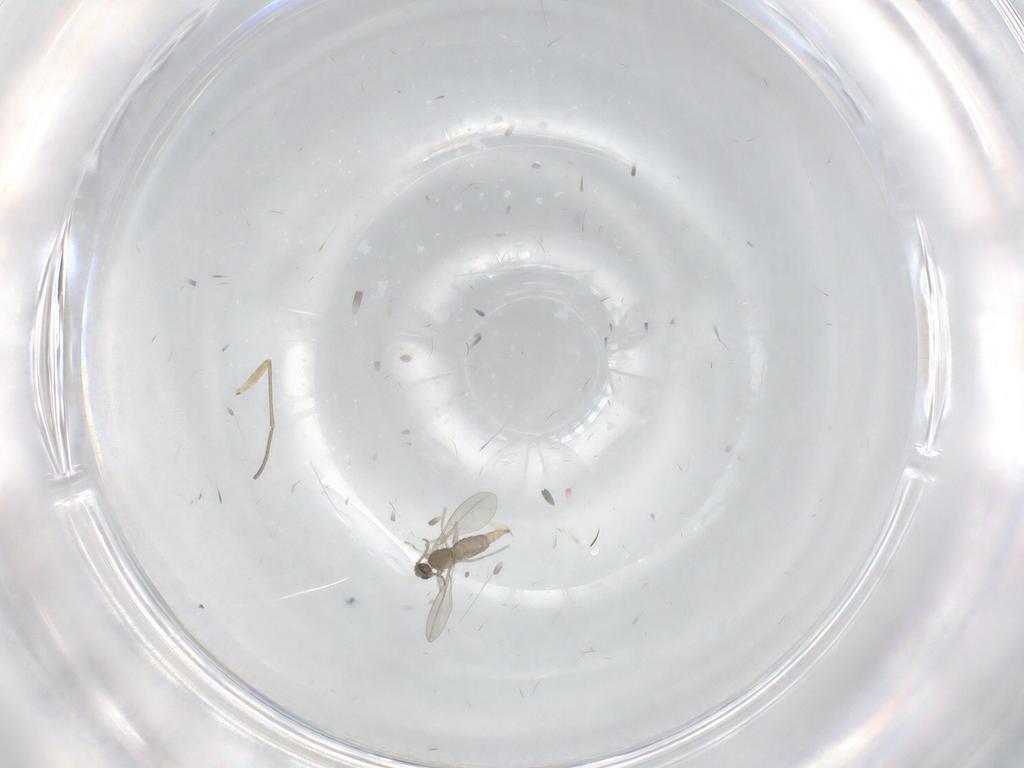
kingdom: Animalia
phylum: Arthropoda
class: Insecta
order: Diptera
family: Cecidomyiidae
